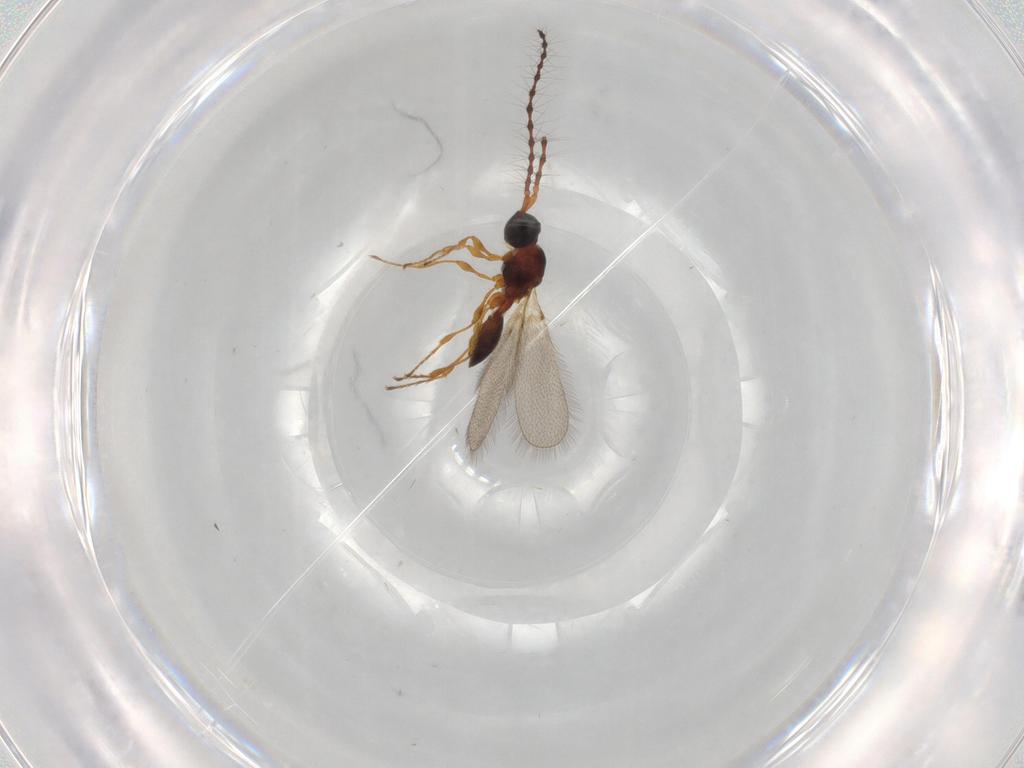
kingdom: Animalia
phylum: Arthropoda
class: Insecta
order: Hymenoptera
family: Diapriidae
